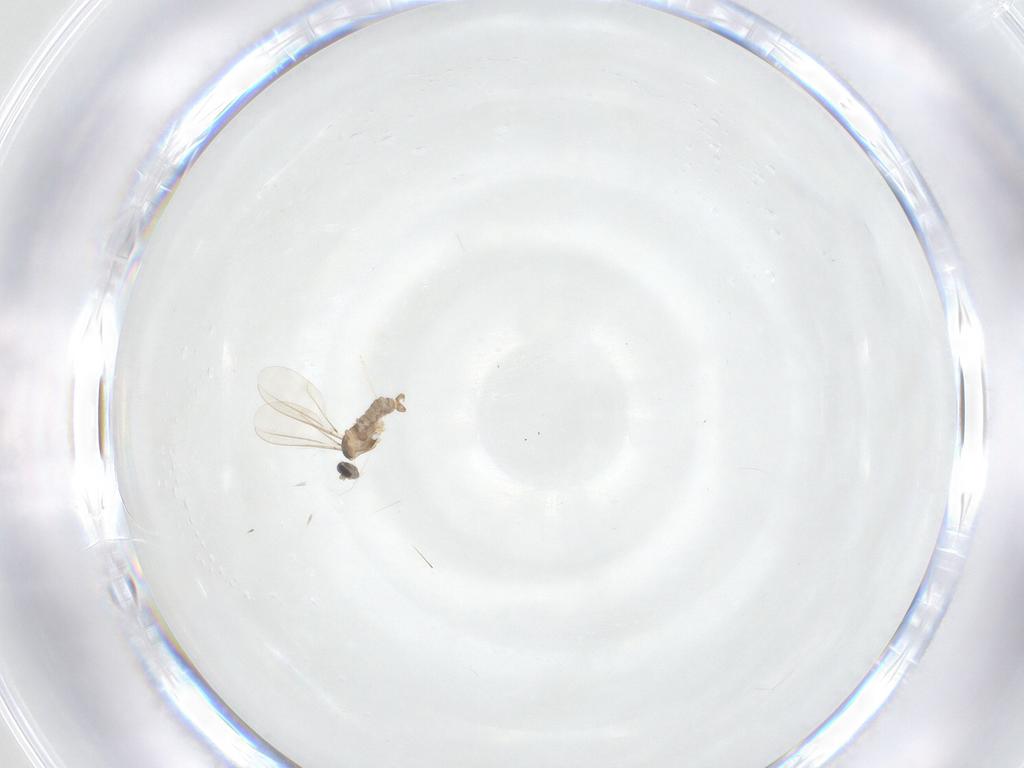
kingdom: Animalia
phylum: Arthropoda
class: Insecta
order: Diptera
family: Cecidomyiidae
